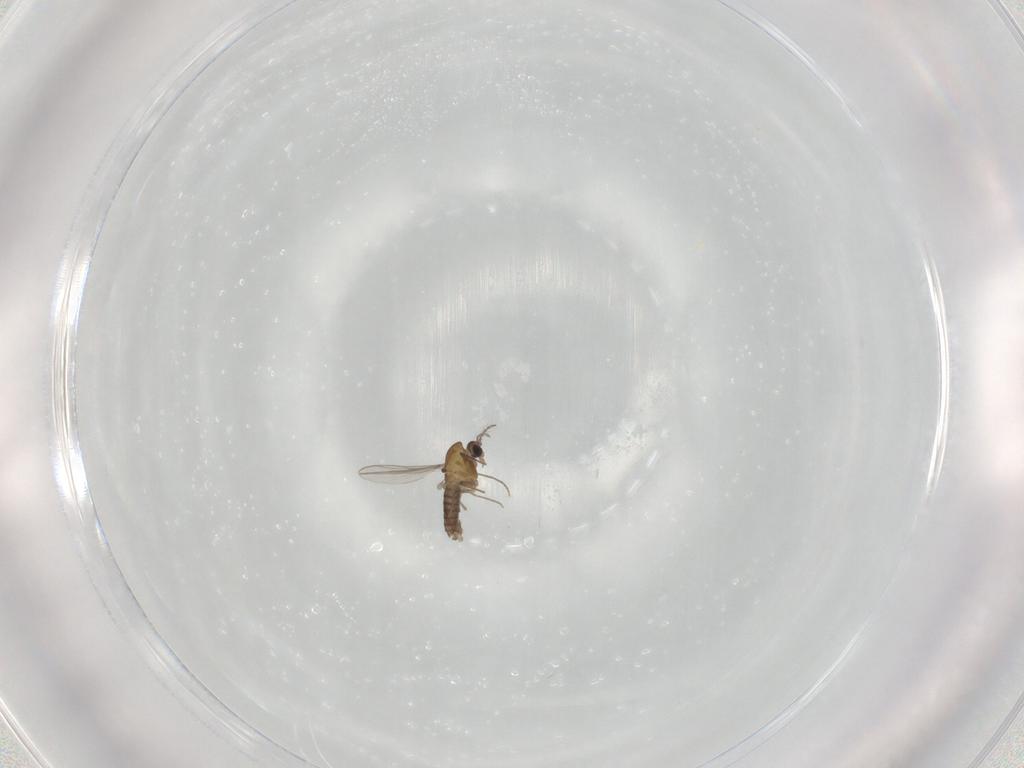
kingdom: Animalia
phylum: Arthropoda
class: Insecta
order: Diptera
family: Chironomidae
